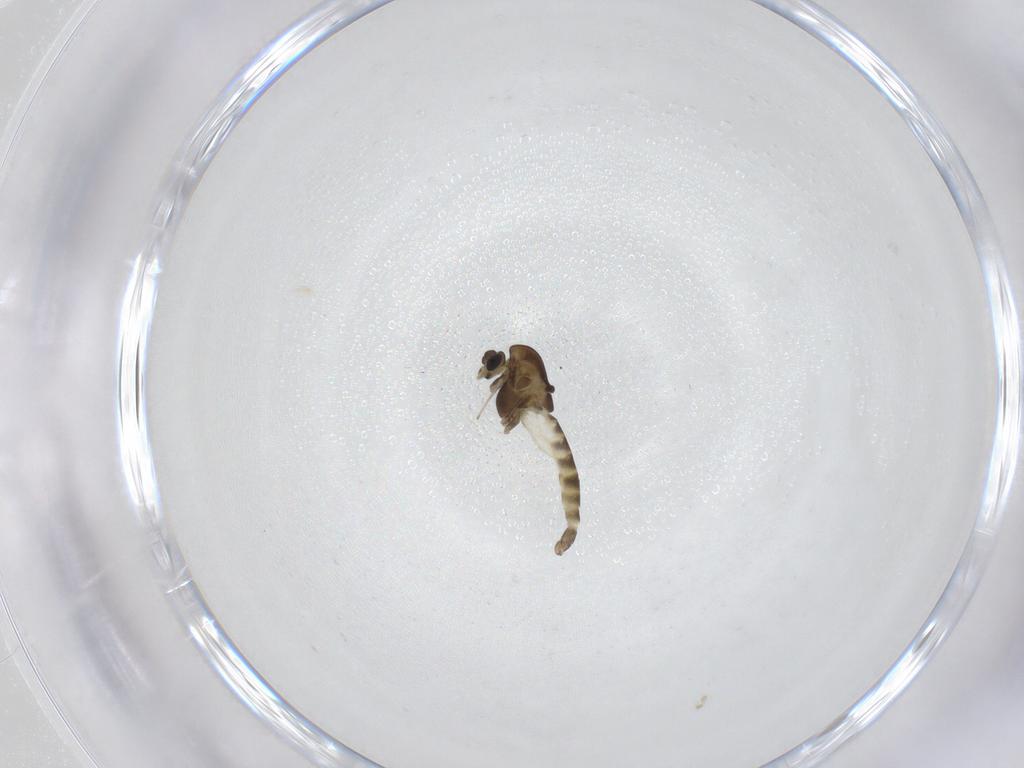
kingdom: Animalia
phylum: Arthropoda
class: Insecta
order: Diptera
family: Chironomidae
